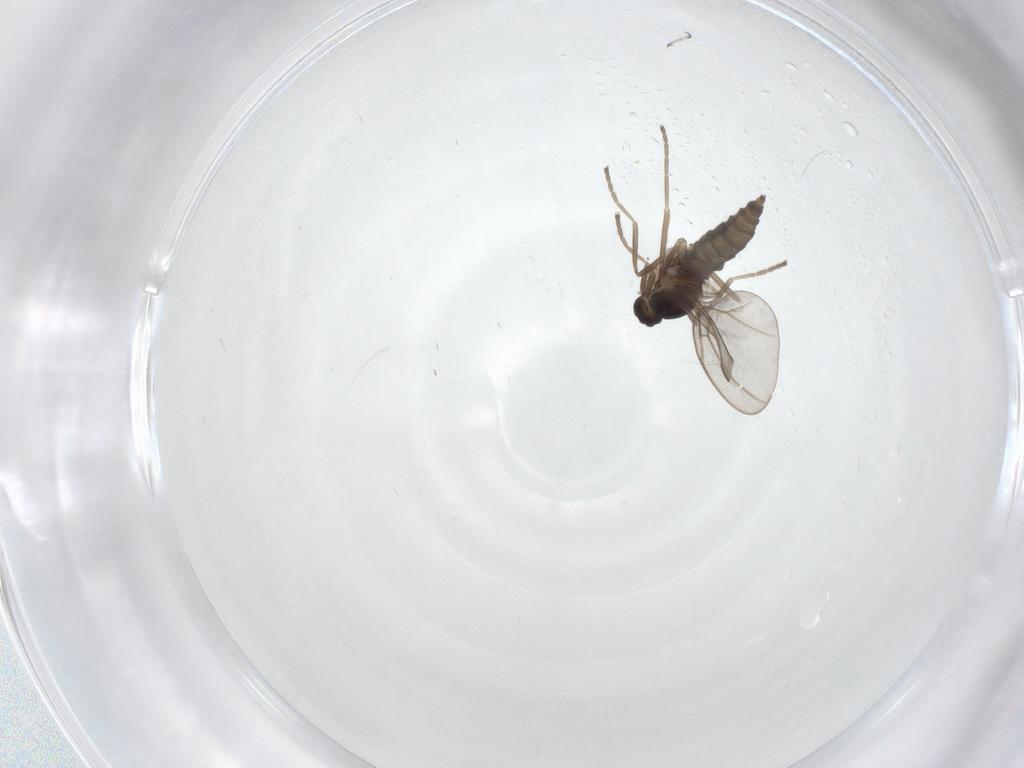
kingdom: Animalia
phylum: Arthropoda
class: Insecta
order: Diptera
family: Cecidomyiidae
